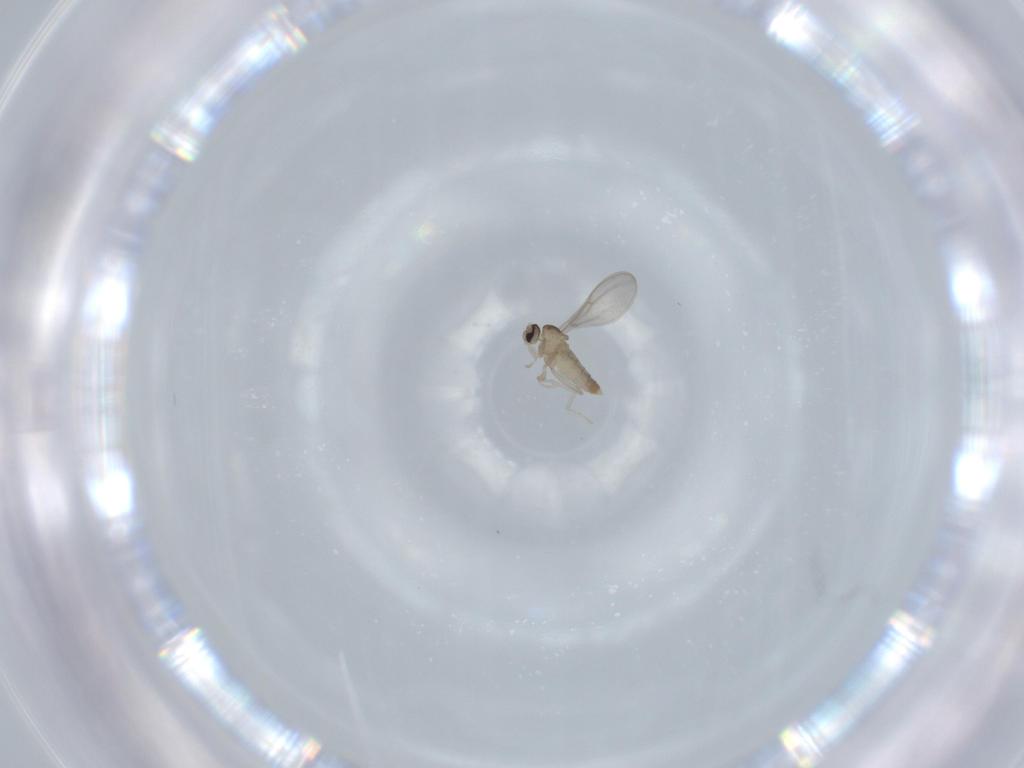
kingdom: Animalia
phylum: Arthropoda
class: Insecta
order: Diptera
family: Cecidomyiidae
